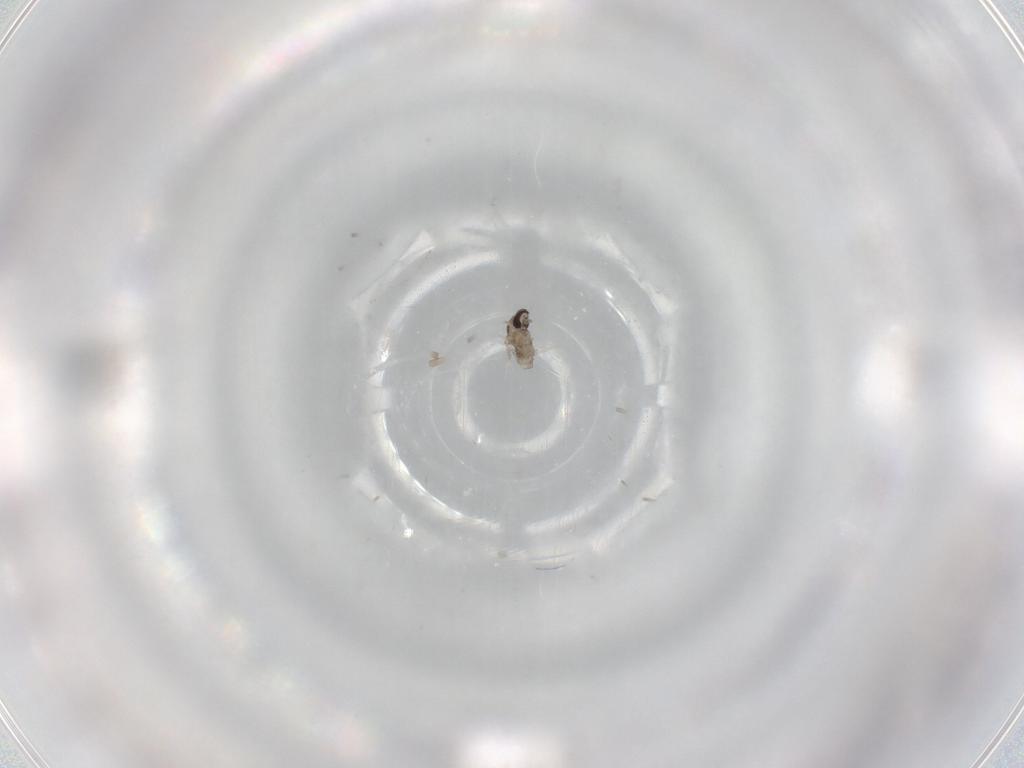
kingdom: Animalia
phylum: Arthropoda
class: Insecta
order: Diptera
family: Cecidomyiidae
